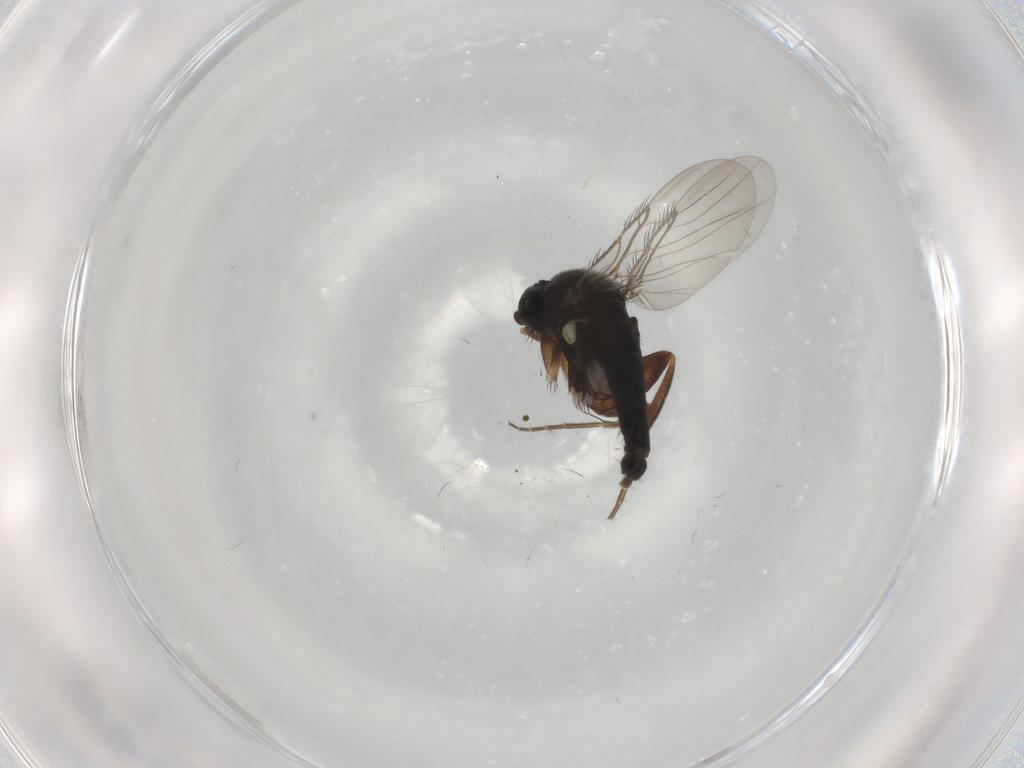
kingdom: Animalia
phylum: Arthropoda
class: Insecta
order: Diptera
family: Phoridae
